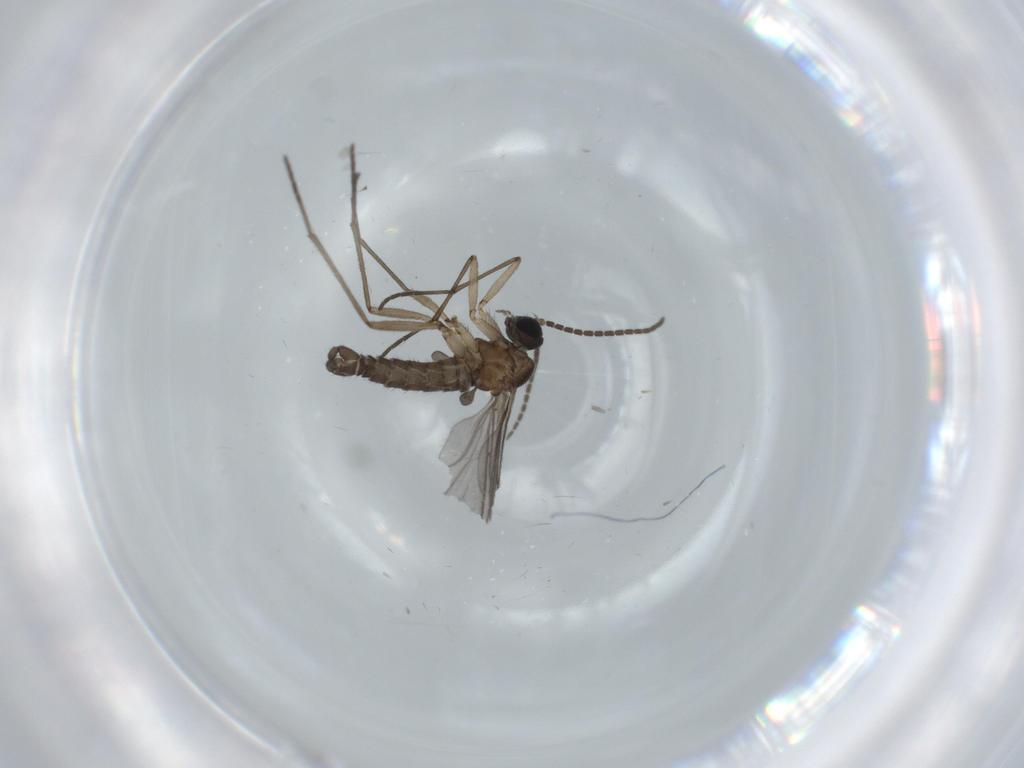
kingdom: Animalia
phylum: Arthropoda
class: Insecta
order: Diptera
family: Sciaridae
